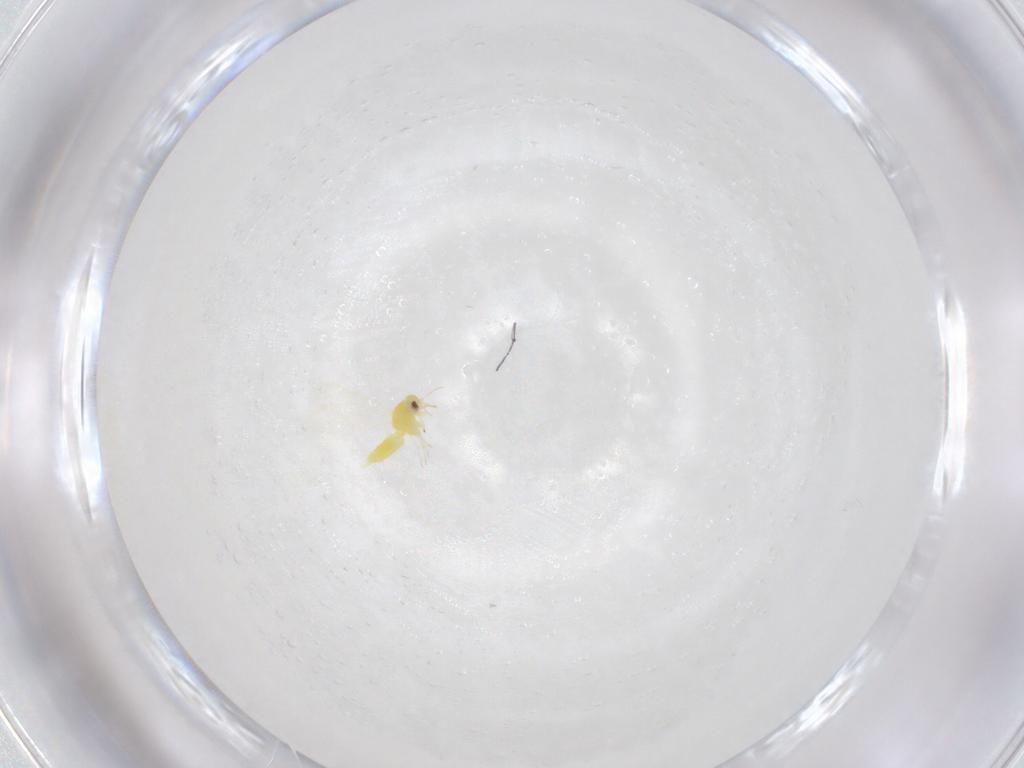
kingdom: Animalia
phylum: Arthropoda
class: Insecta
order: Hemiptera
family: Aleyrodidae
